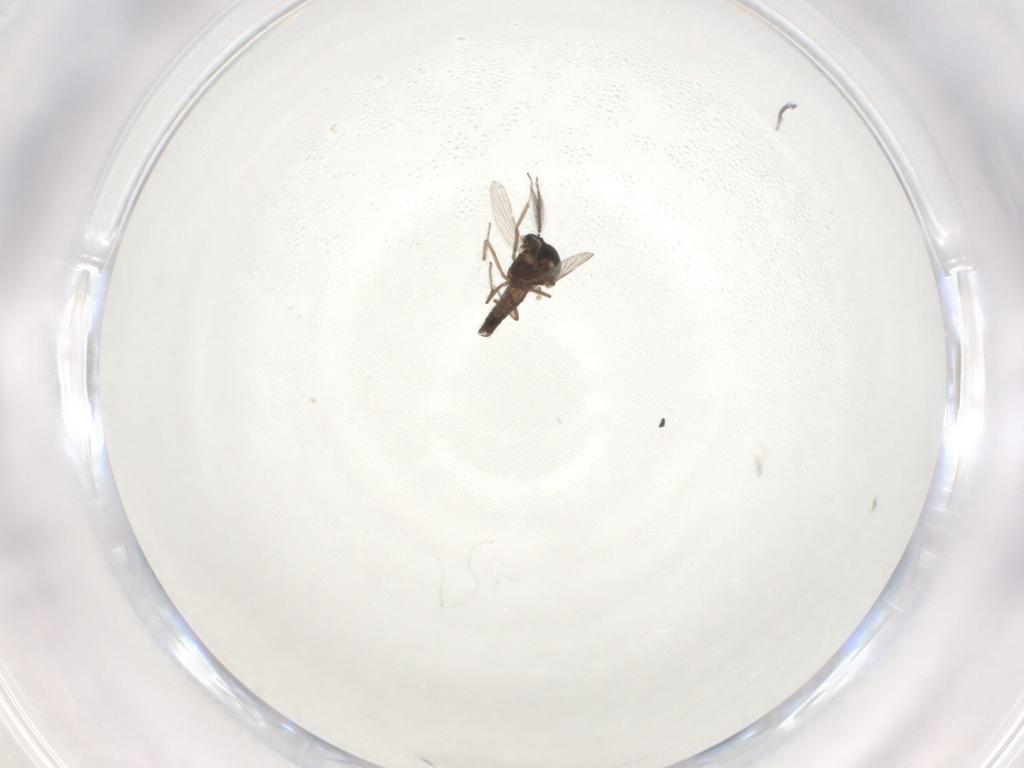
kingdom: Animalia
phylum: Arthropoda
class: Insecta
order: Diptera
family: Ceratopogonidae
